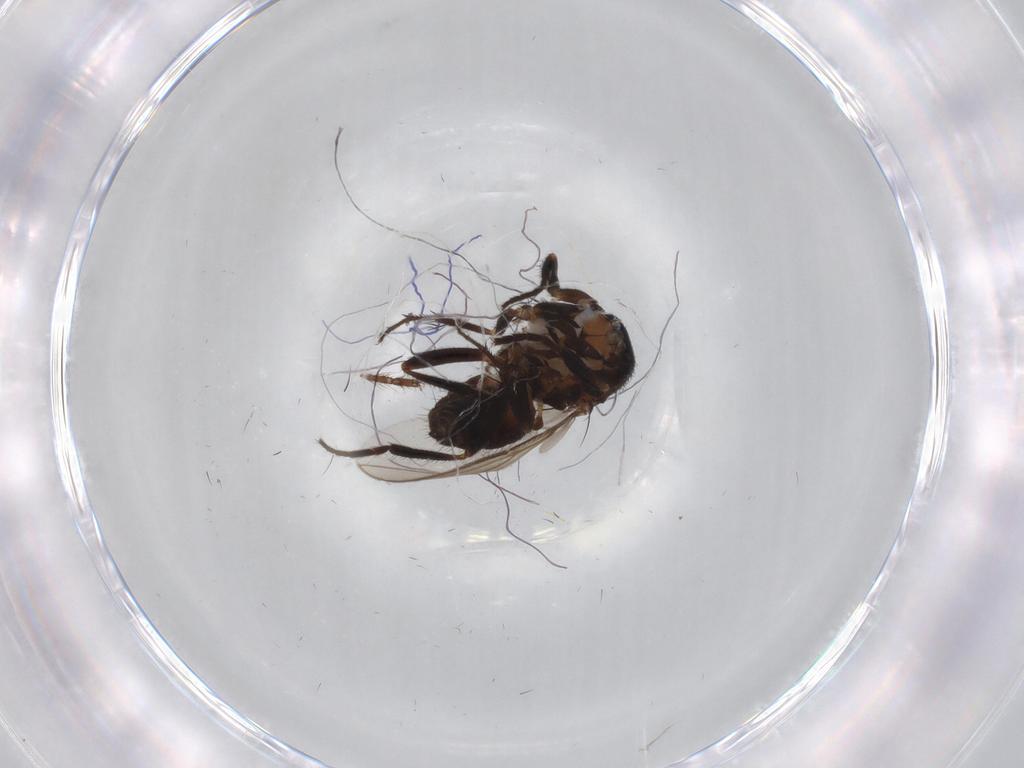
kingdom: Animalia
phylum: Arthropoda
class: Insecta
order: Diptera
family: Sphaeroceridae
